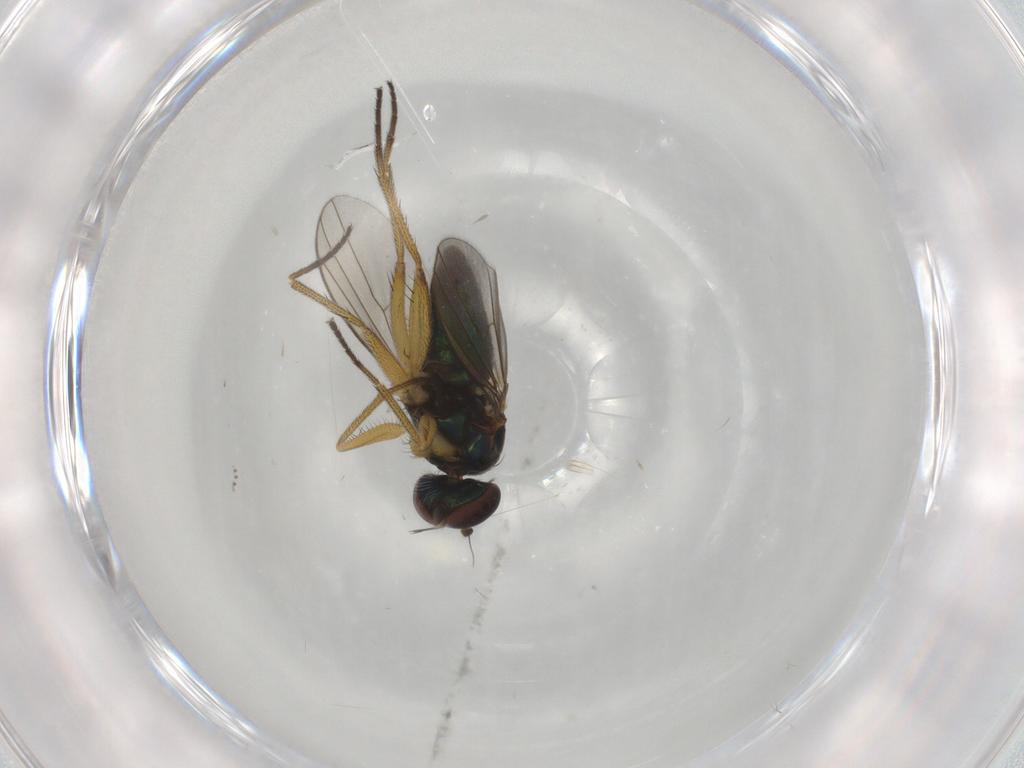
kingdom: Animalia
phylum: Arthropoda
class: Insecta
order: Diptera
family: Dolichopodidae
